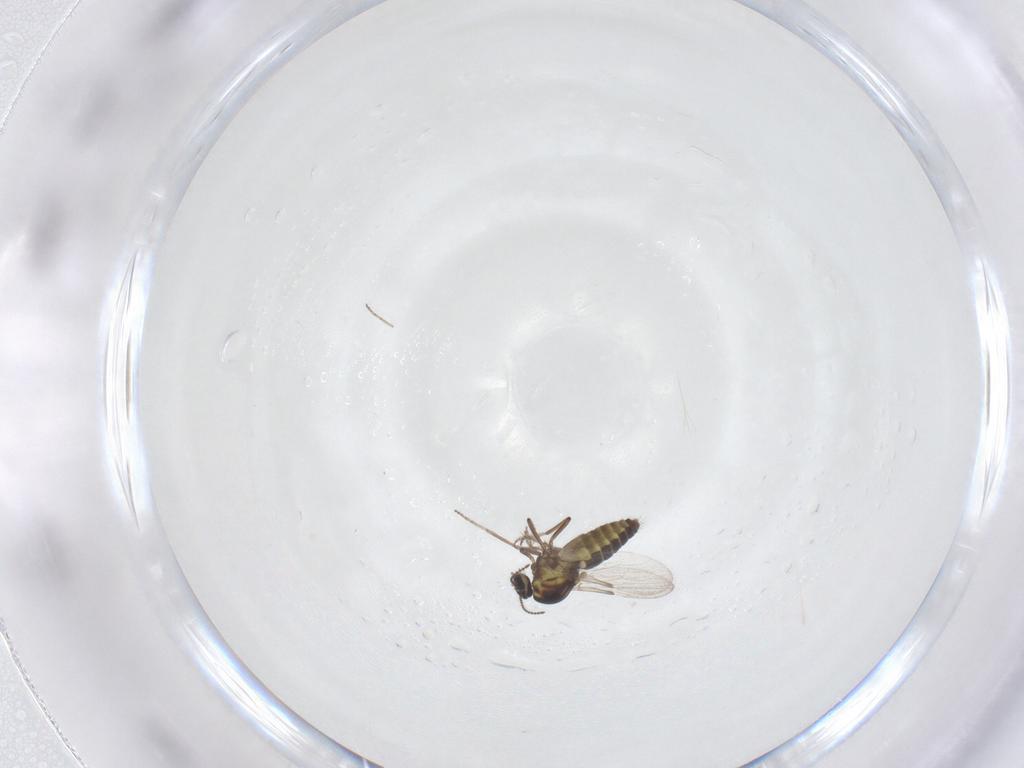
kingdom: Animalia
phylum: Arthropoda
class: Insecta
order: Diptera
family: Ceratopogonidae
